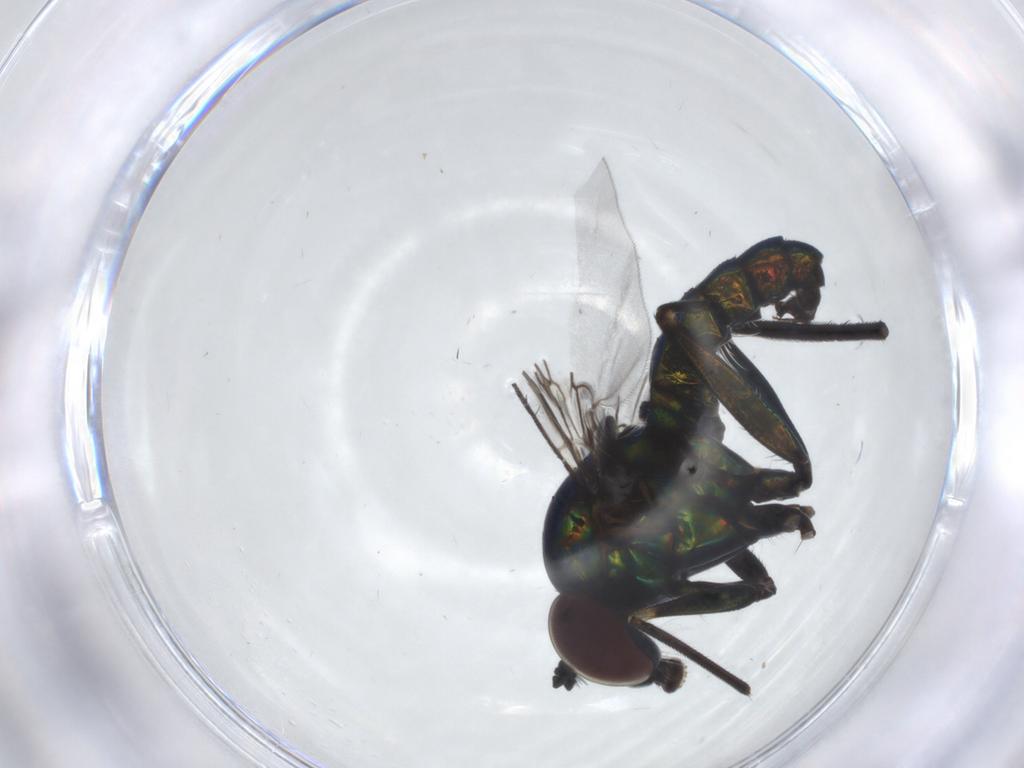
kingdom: Animalia
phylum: Arthropoda
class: Insecta
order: Diptera
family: Dolichopodidae
